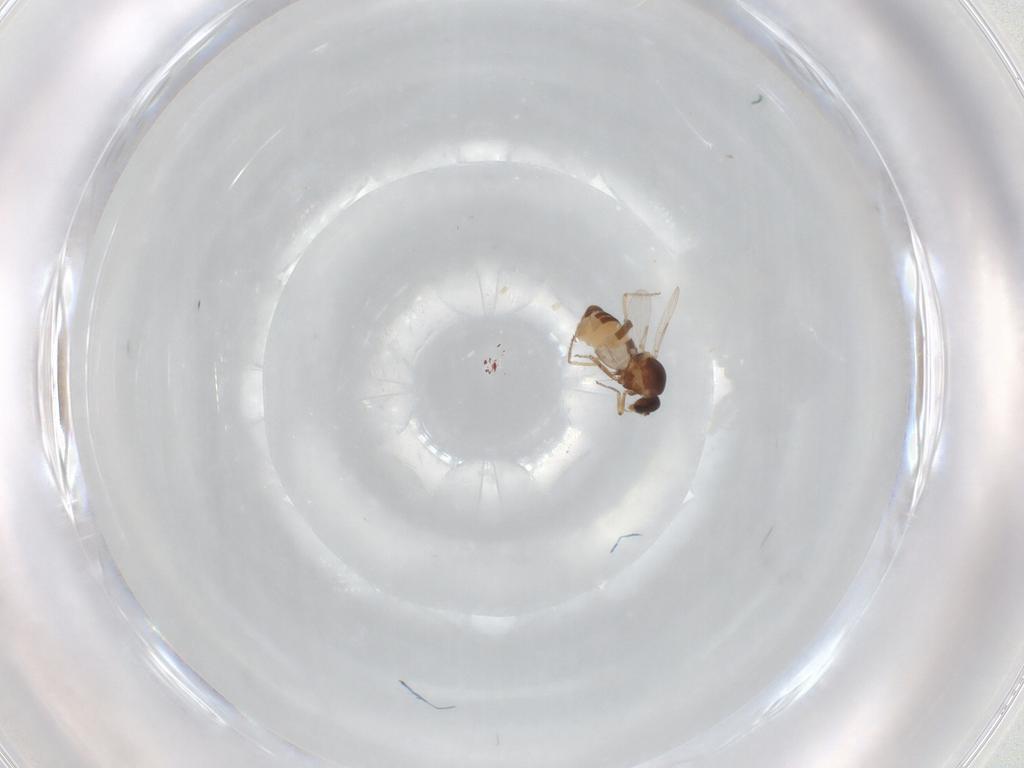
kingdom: Animalia
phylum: Arthropoda
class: Insecta
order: Diptera
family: Ceratopogonidae
